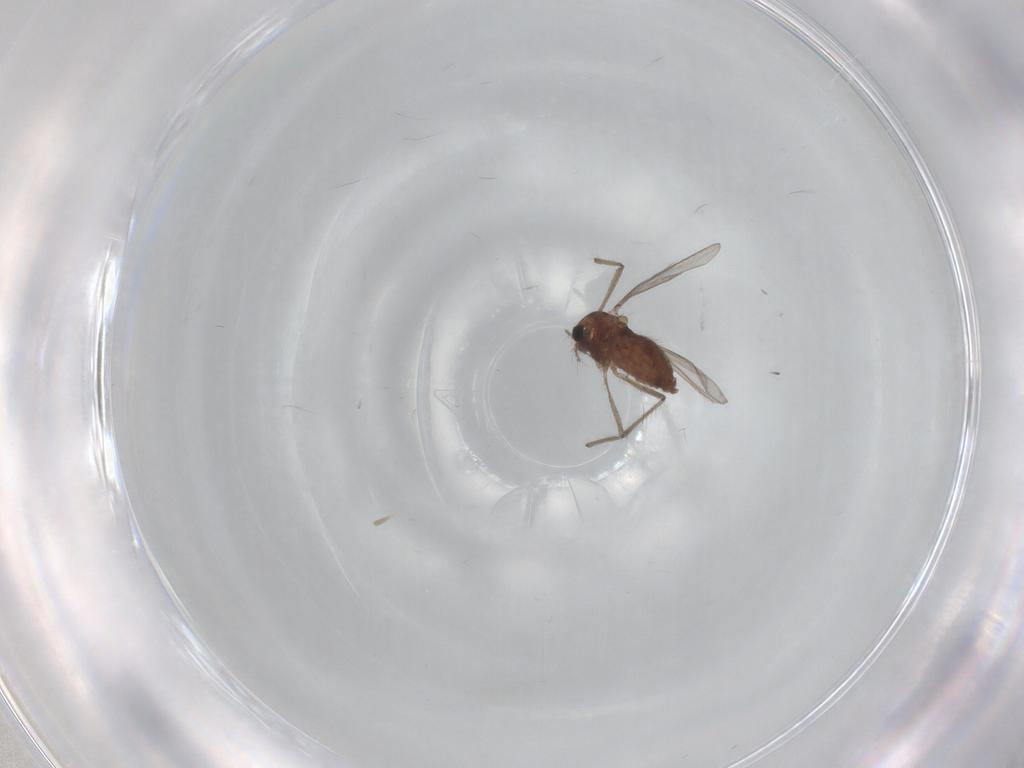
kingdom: Animalia
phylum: Arthropoda
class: Insecta
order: Diptera
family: Chironomidae
